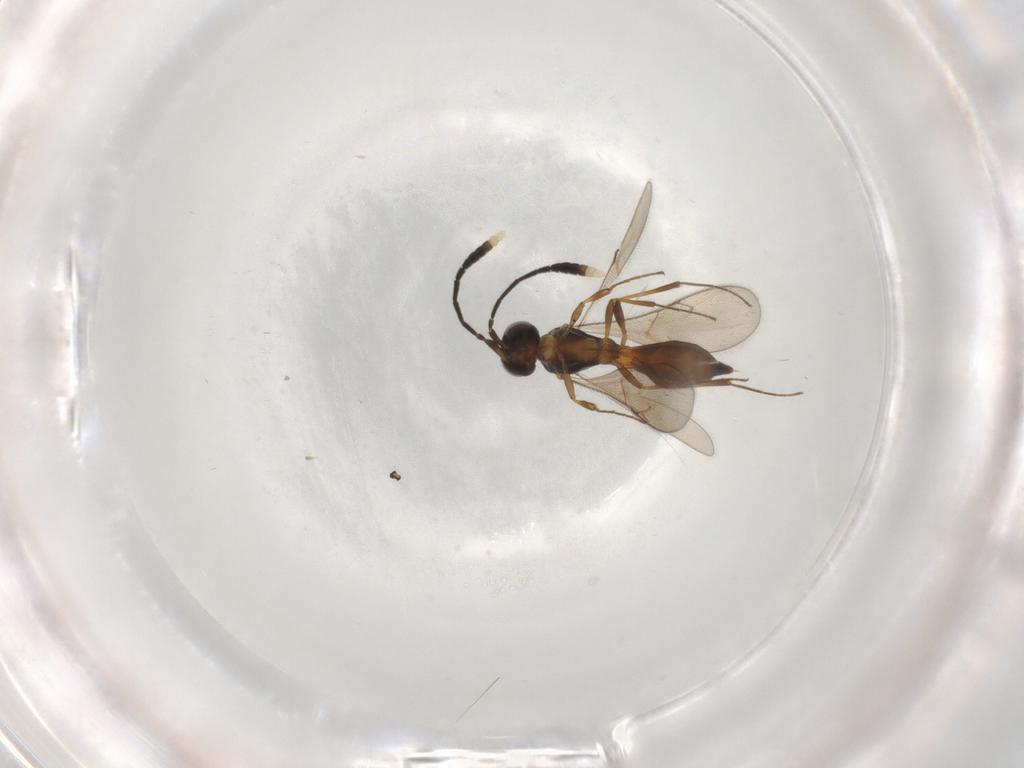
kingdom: Animalia
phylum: Arthropoda
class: Insecta
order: Hymenoptera
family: Scelionidae
